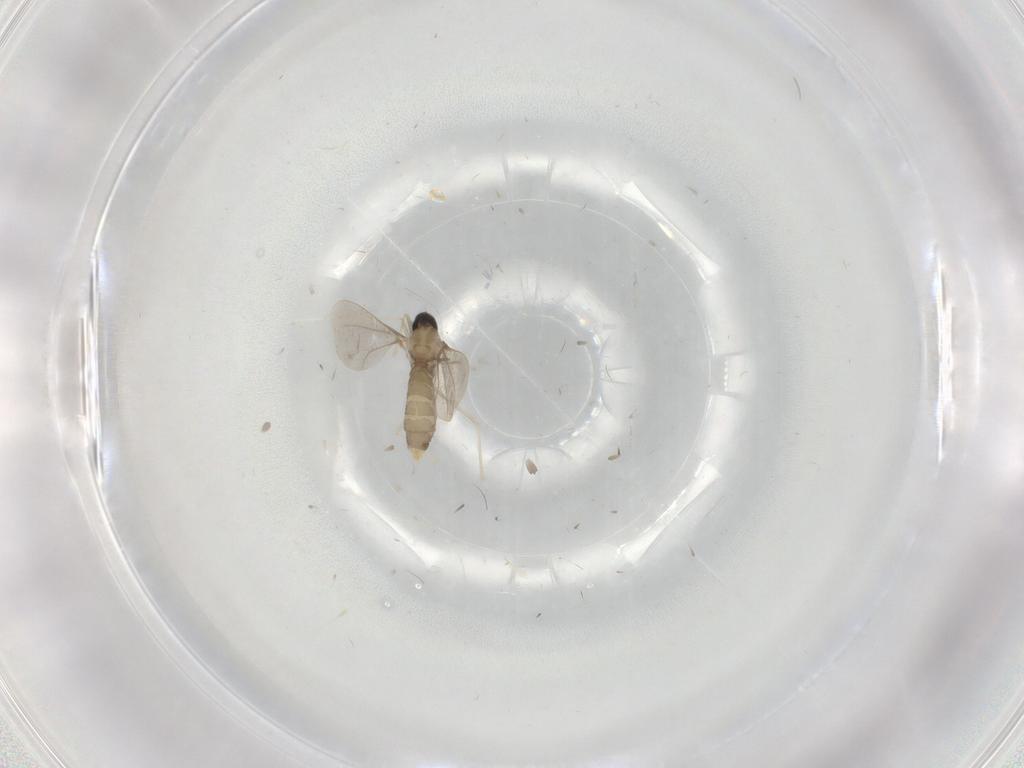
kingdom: Animalia
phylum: Arthropoda
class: Insecta
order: Diptera
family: Cecidomyiidae
